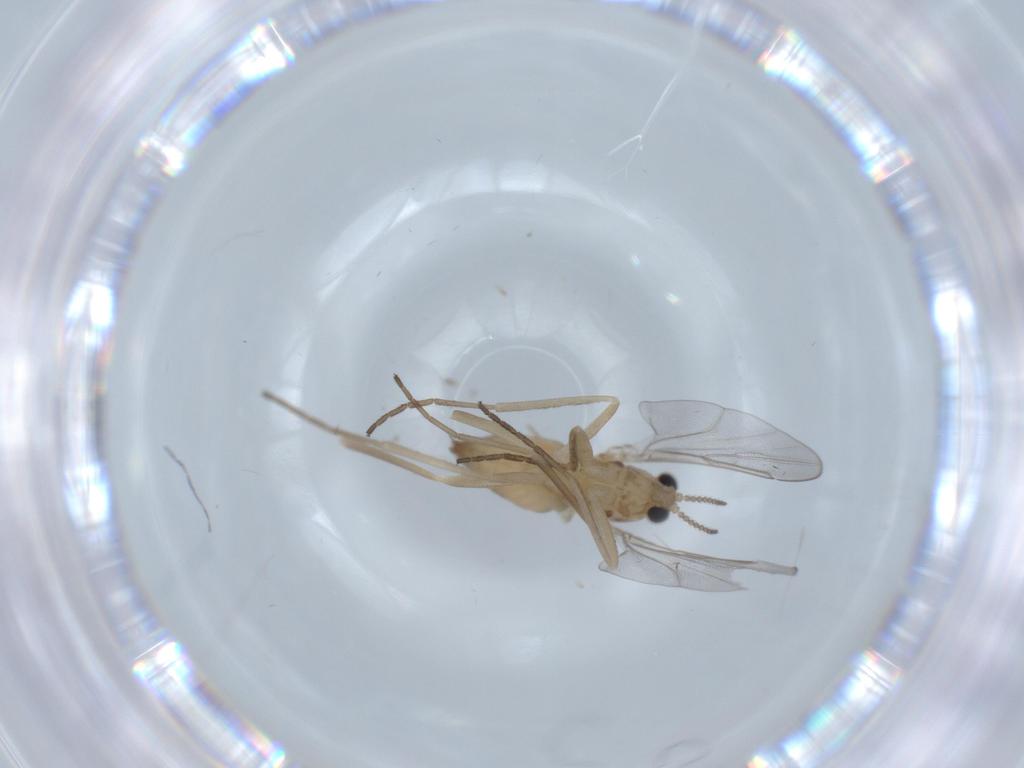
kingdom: Animalia
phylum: Arthropoda
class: Insecta
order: Diptera
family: Cecidomyiidae
